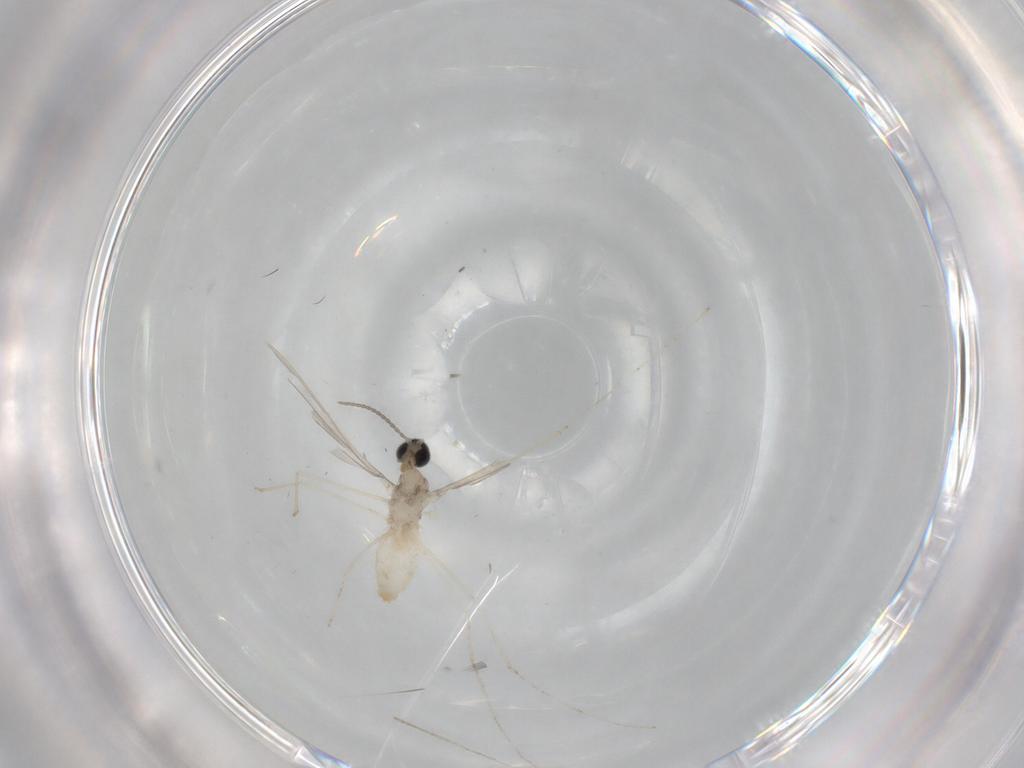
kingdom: Animalia
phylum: Arthropoda
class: Insecta
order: Diptera
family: Cecidomyiidae
